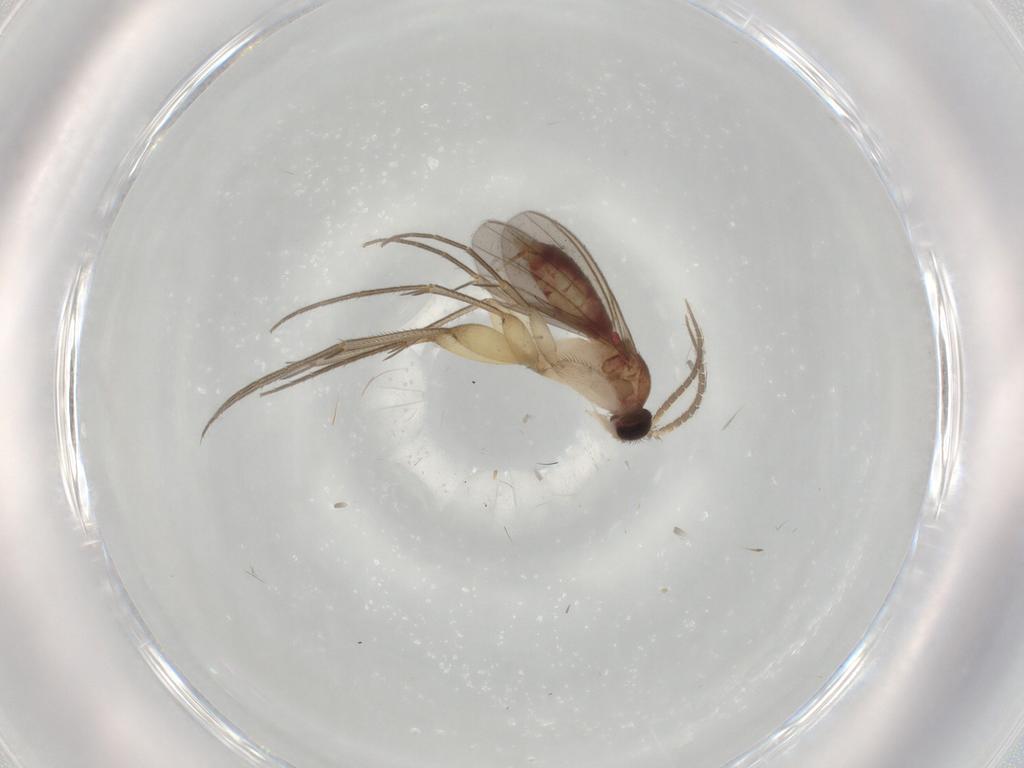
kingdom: Animalia
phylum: Arthropoda
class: Insecta
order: Diptera
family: Mycetophilidae
